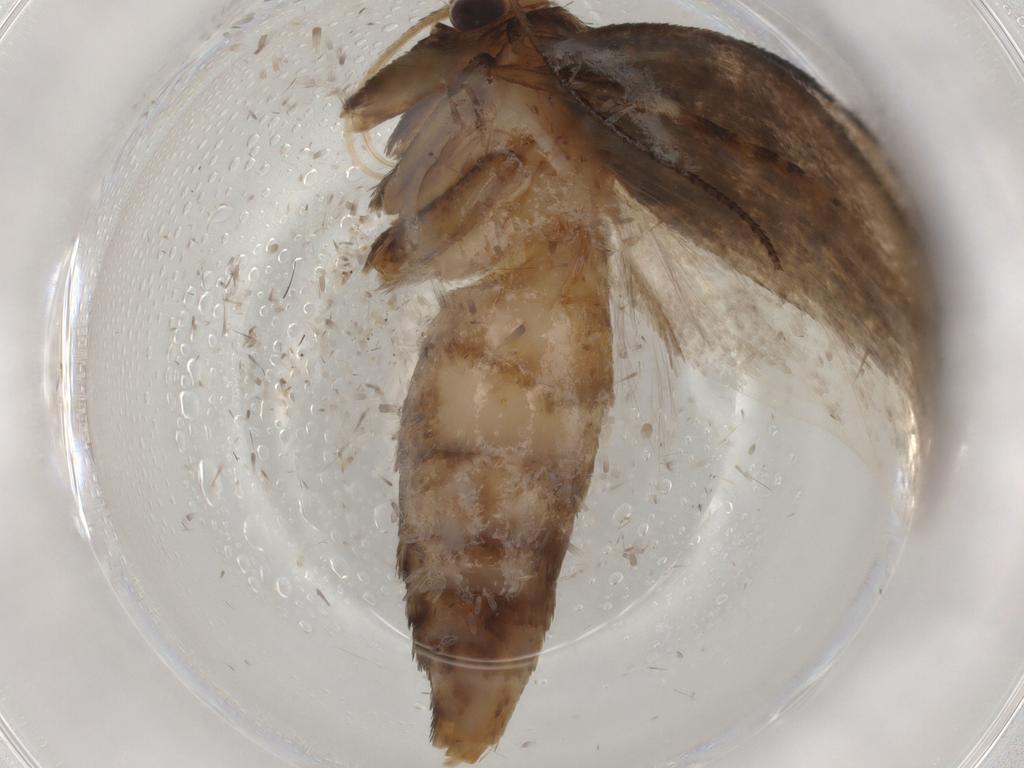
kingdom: Animalia
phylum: Arthropoda
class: Insecta
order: Lepidoptera
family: Oecophoridae
